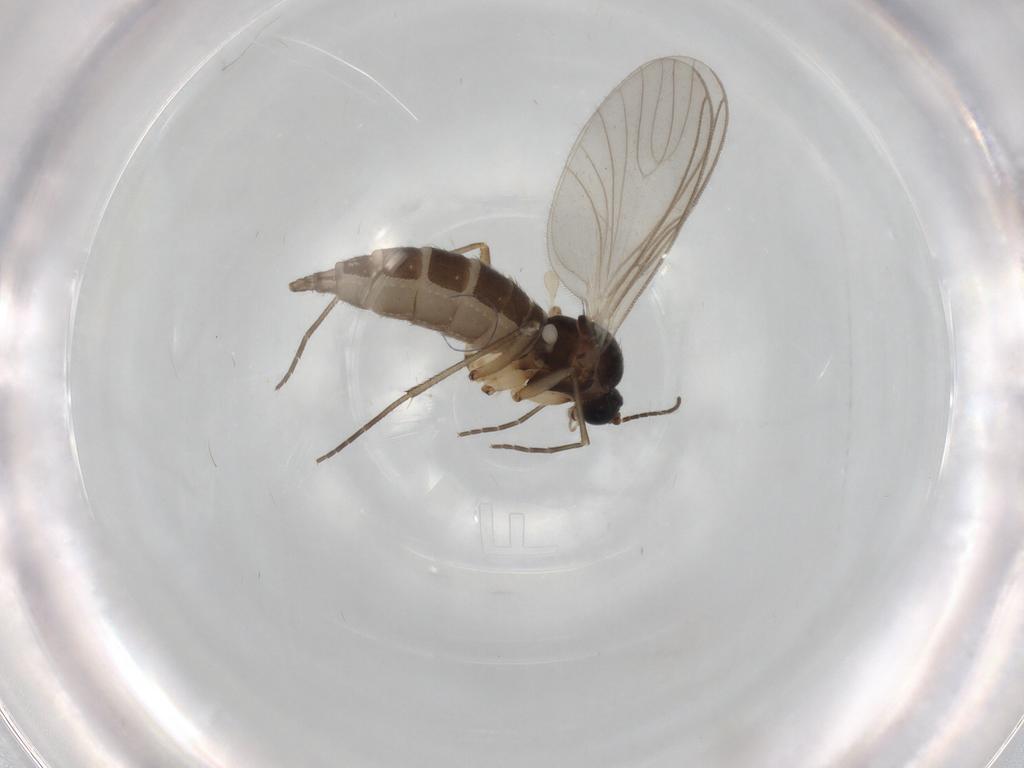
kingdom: Animalia
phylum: Arthropoda
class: Insecta
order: Diptera
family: Sciaridae
